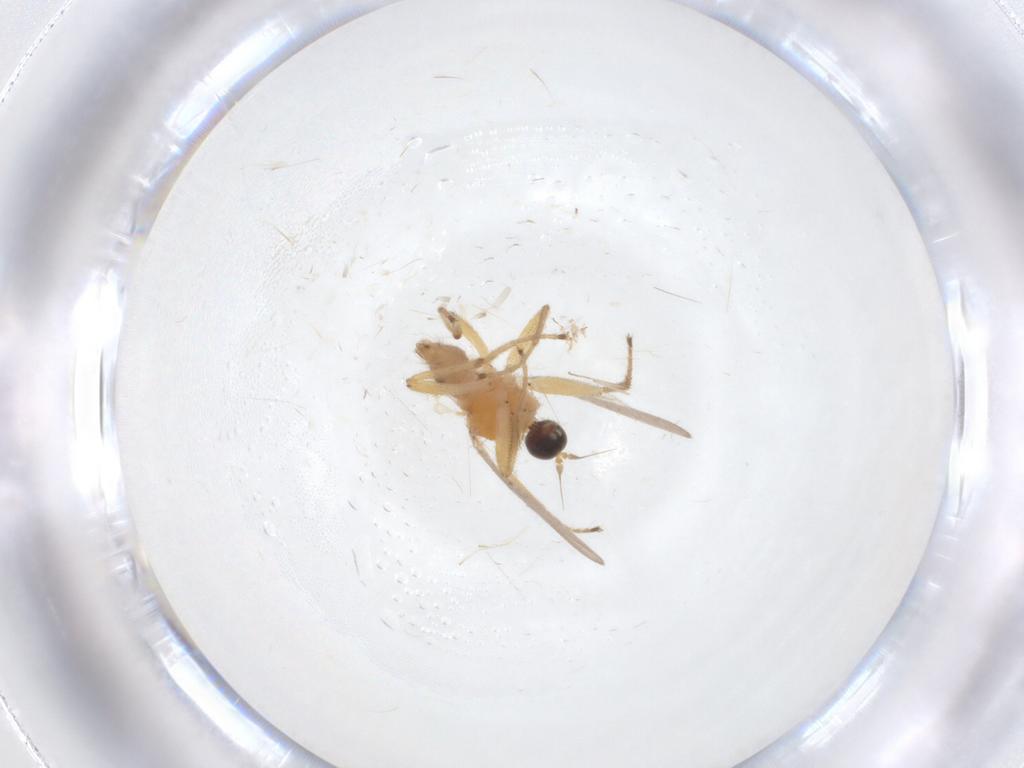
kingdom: Animalia
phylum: Arthropoda
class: Insecta
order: Diptera
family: Hybotidae
